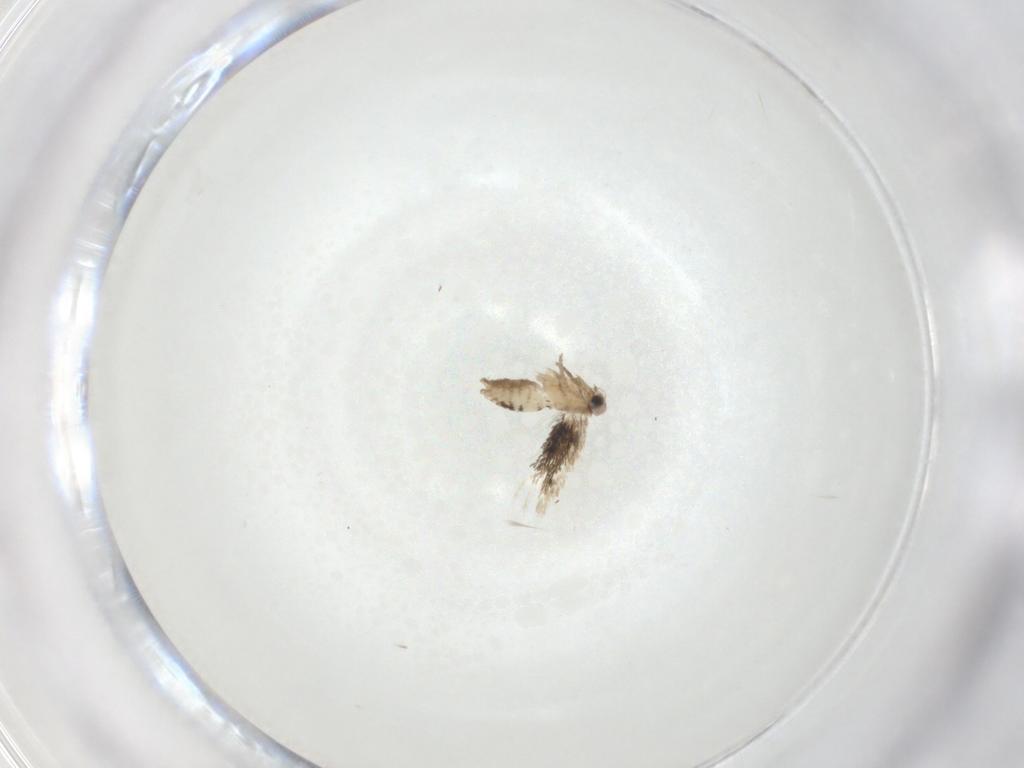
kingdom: Animalia
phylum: Arthropoda
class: Insecta
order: Lepidoptera
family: Nepticulidae
